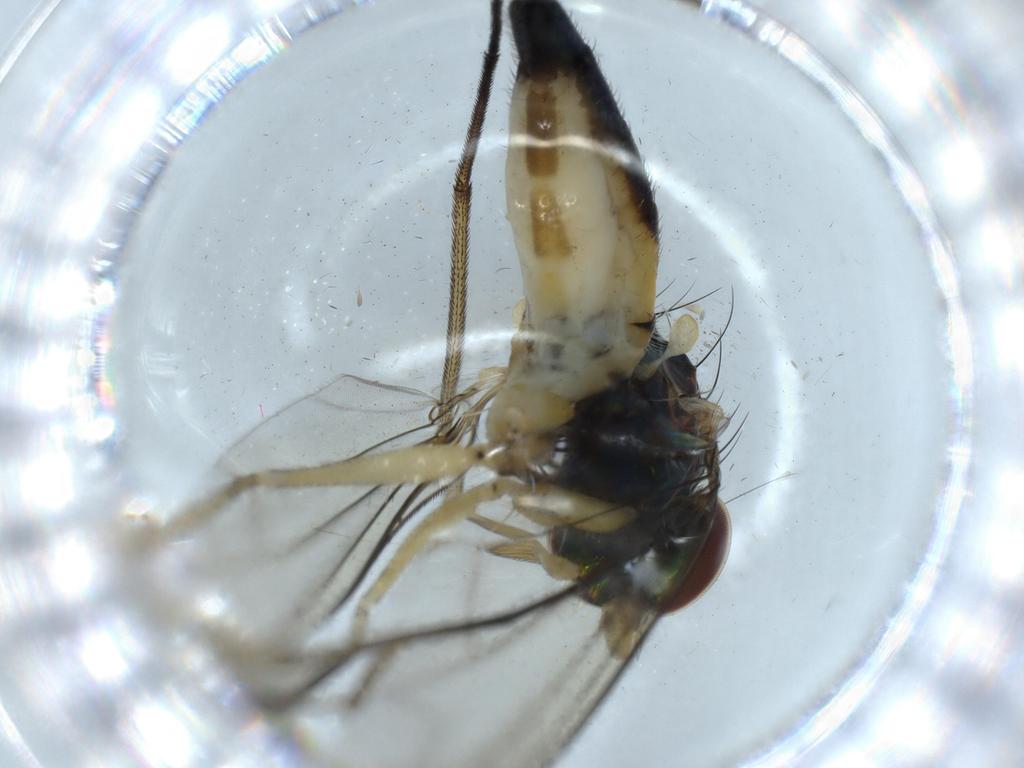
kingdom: Animalia
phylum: Arthropoda
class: Insecta
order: Diptera
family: Dolichopodidae
